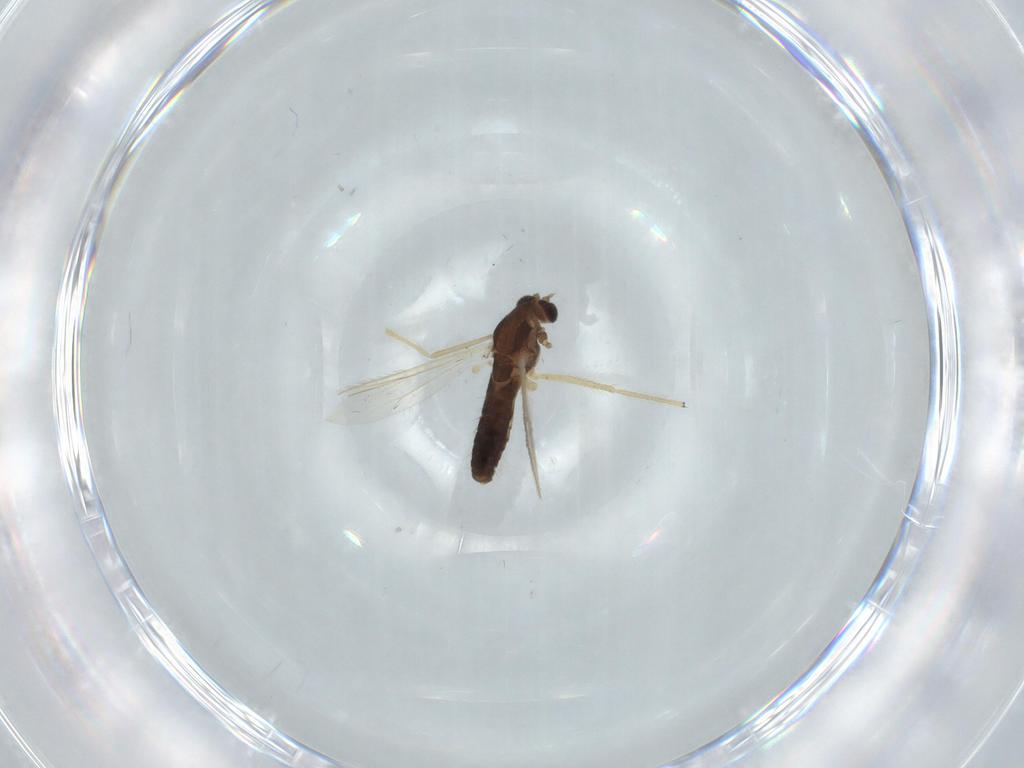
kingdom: Animalia
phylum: Arthropoda
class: Insecta
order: Diptera
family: Chironomidae
